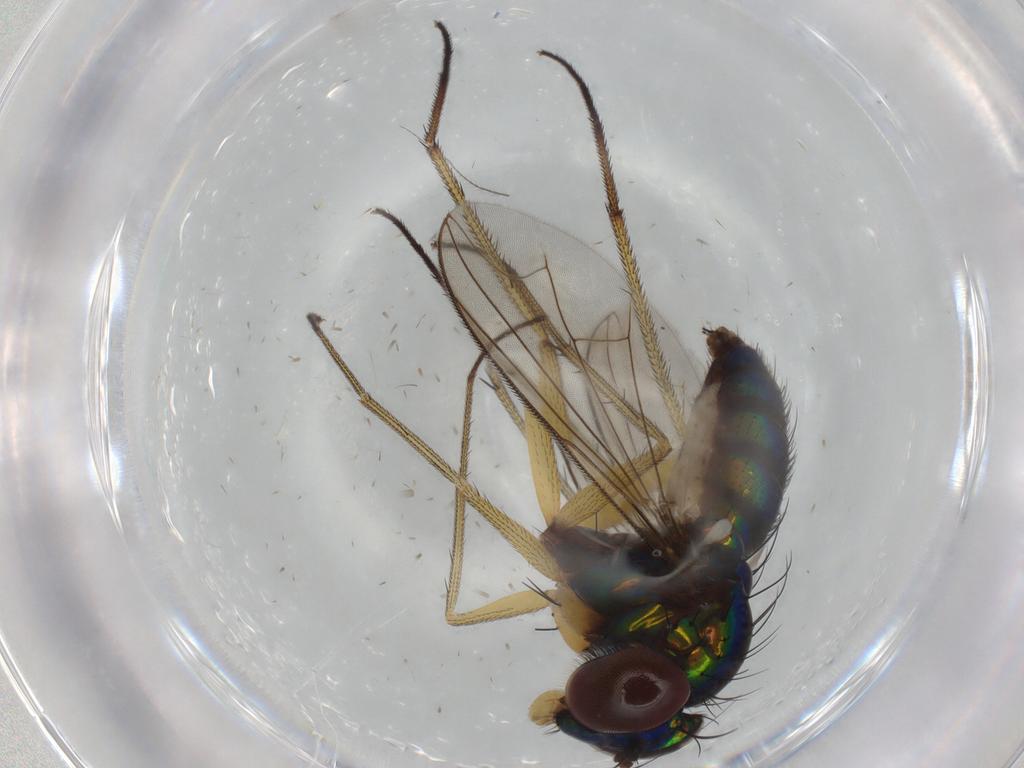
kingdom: Animalia
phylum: Arthropoda
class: Insecta
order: Diptera
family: Dolichopodidae
